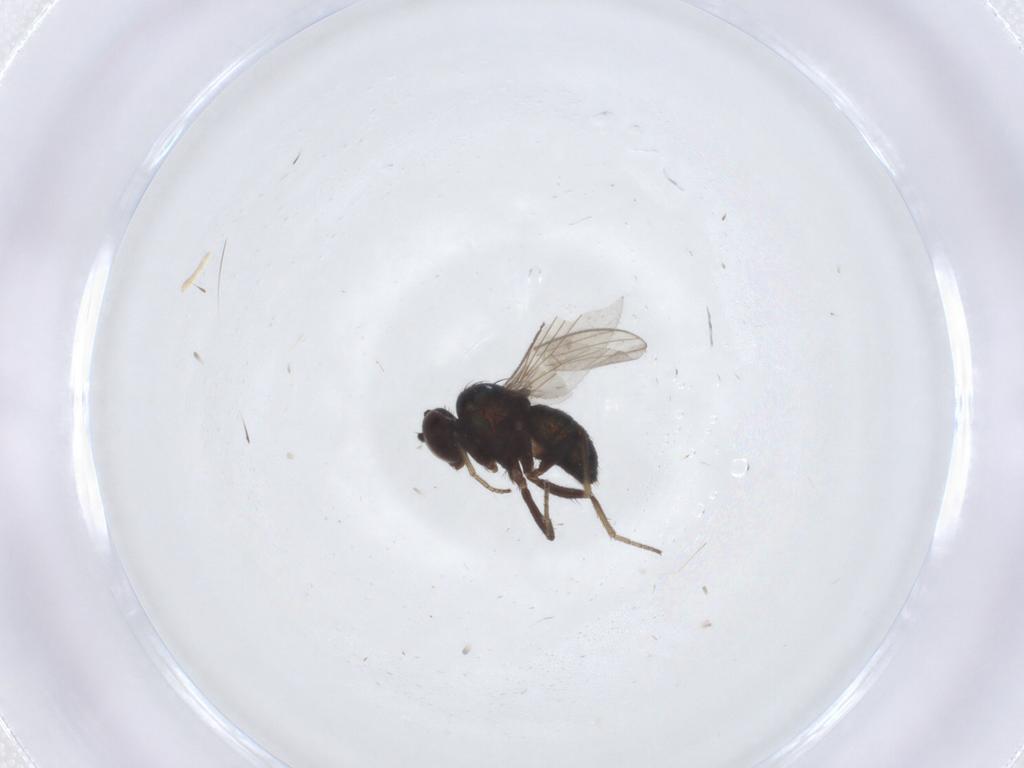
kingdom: Animalia
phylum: Arthropoda
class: Insecta
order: Diptera
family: Dolichopodidae
